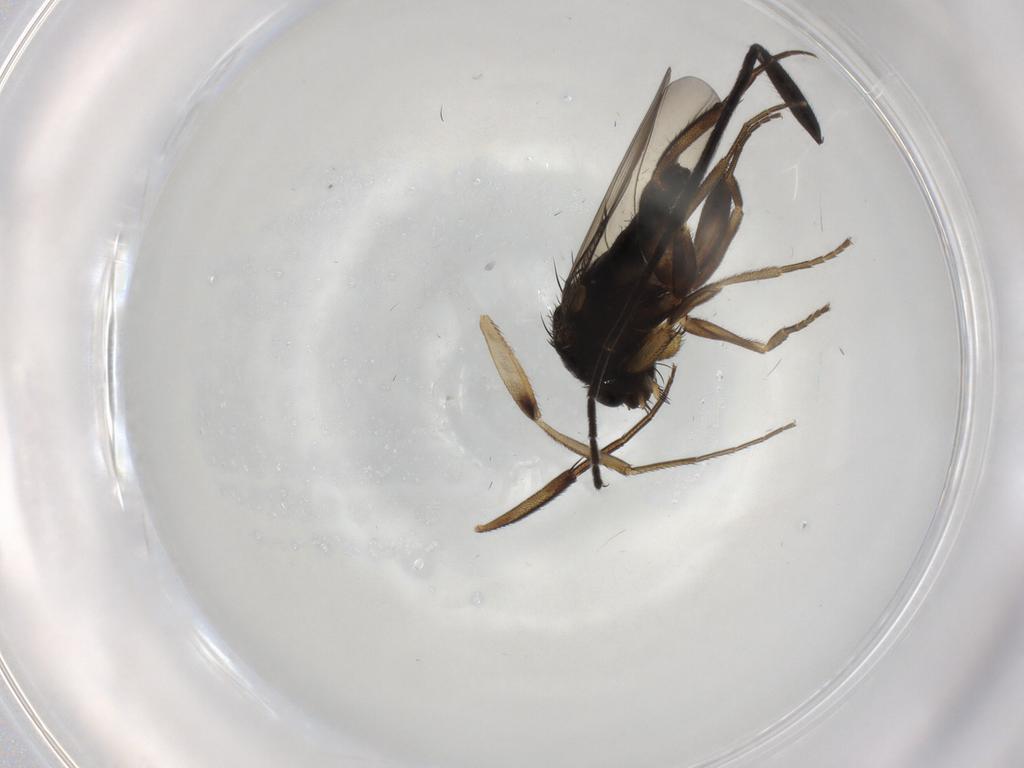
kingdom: Animalia
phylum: Arthropoda
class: Insecta
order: Diptera
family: Phoridae
